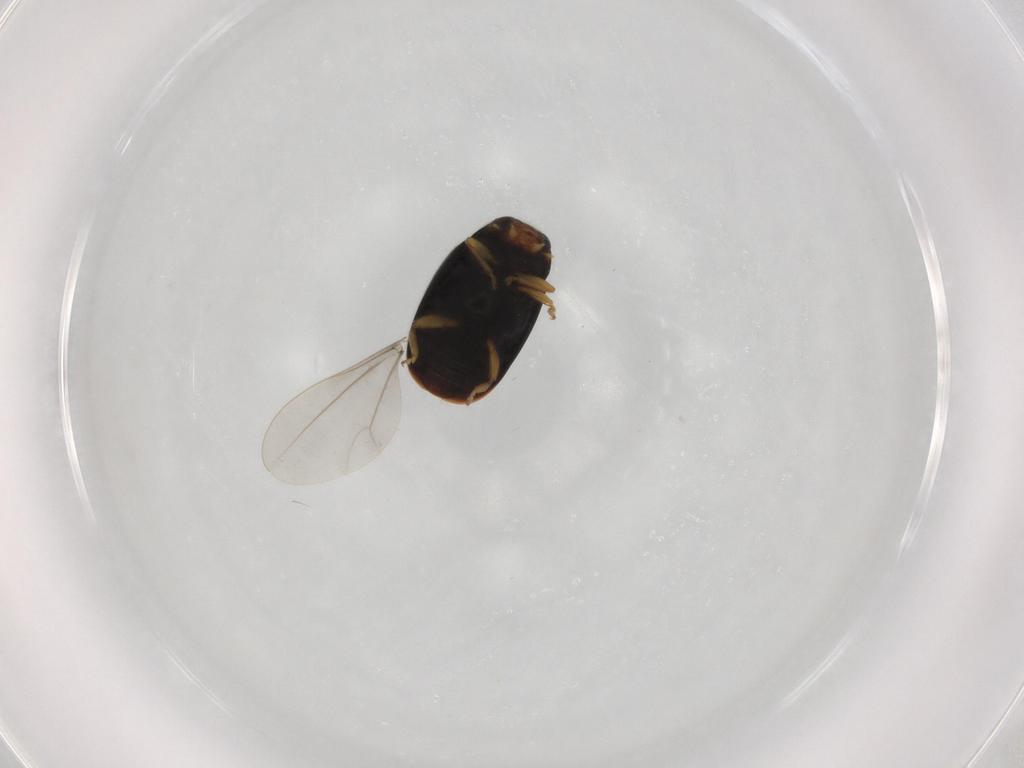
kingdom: Animalia
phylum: Arthropoda
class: Insecta
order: Coleoptera
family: Coccinellidae
